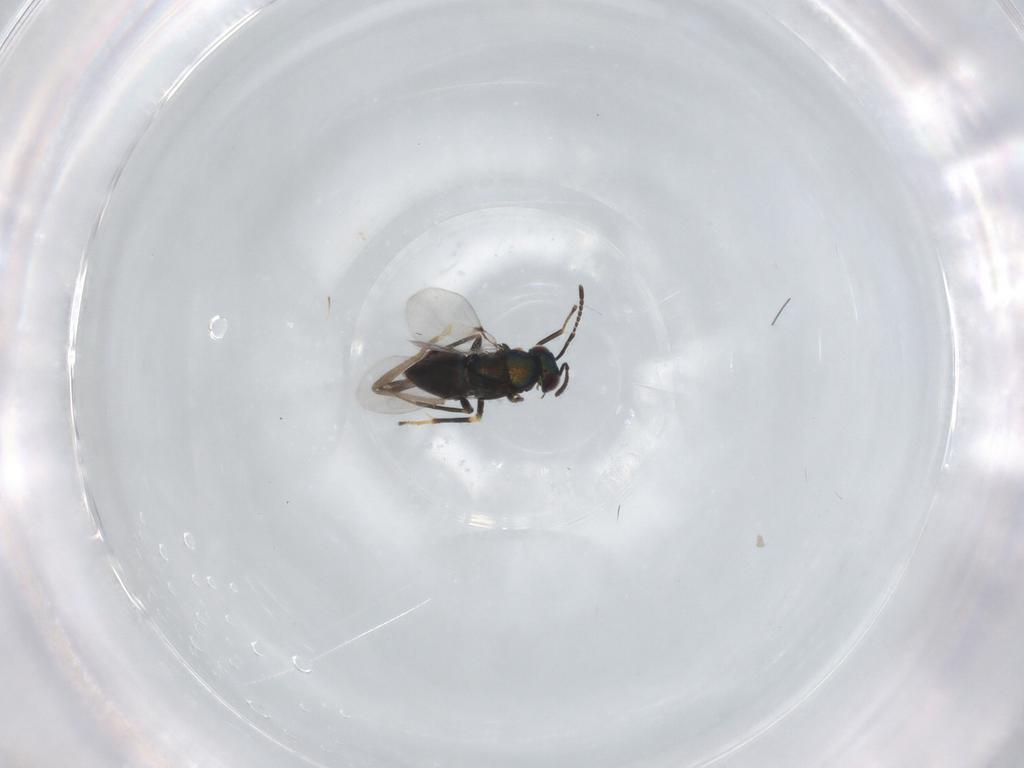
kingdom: Animalia
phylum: Arthropoda
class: Insecta
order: Hymenoptera
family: Encyrtidae
